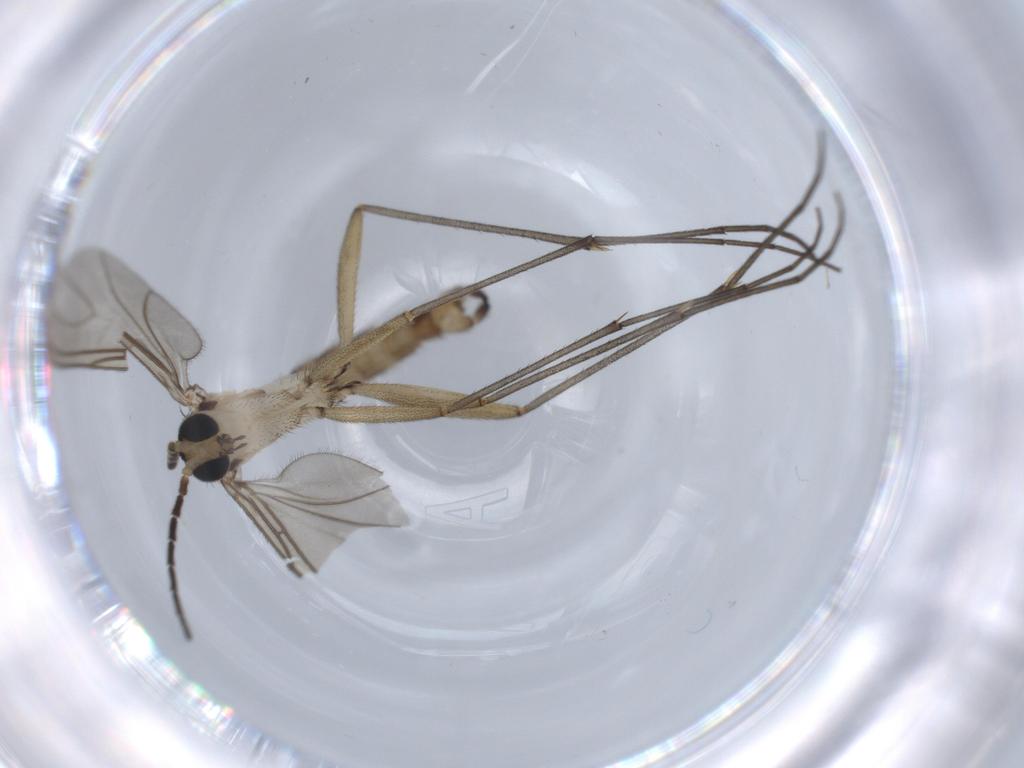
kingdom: Animalia
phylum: Arthropoda
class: Insecta
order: Diptera
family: Sciaridae
